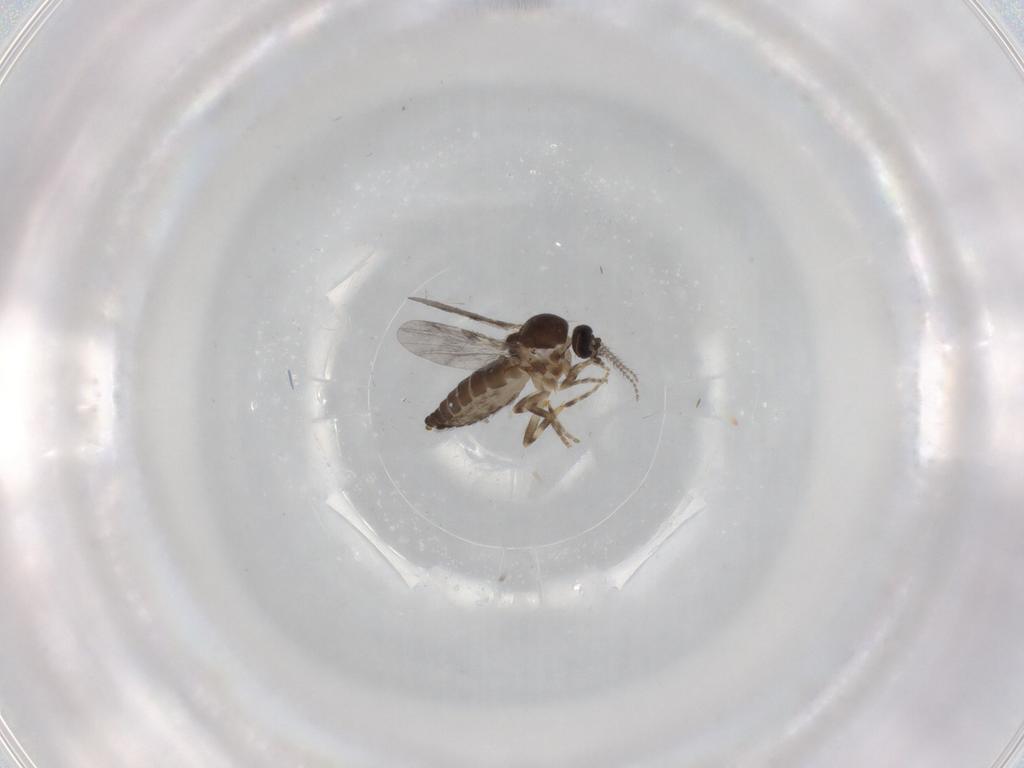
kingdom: Animalia
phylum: Arthropoda
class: Insecta
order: Diptera
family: Ceratopogonidae
